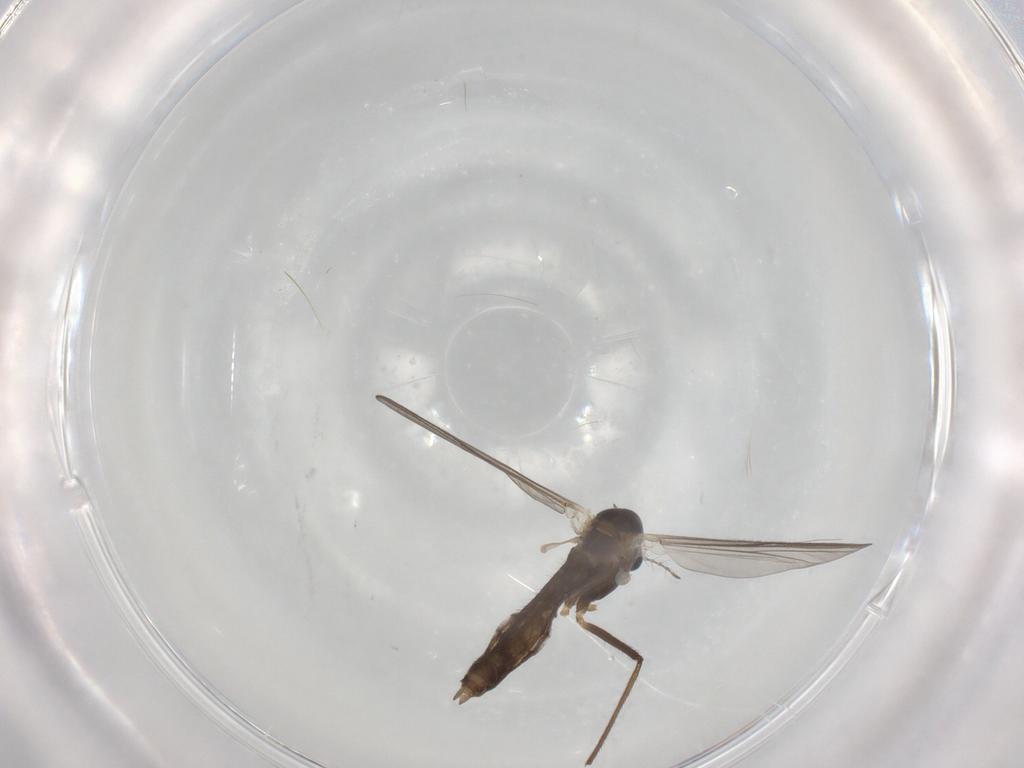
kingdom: Animalia
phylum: Arthropoda
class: Insecta
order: Diptera
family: Chironomidae
